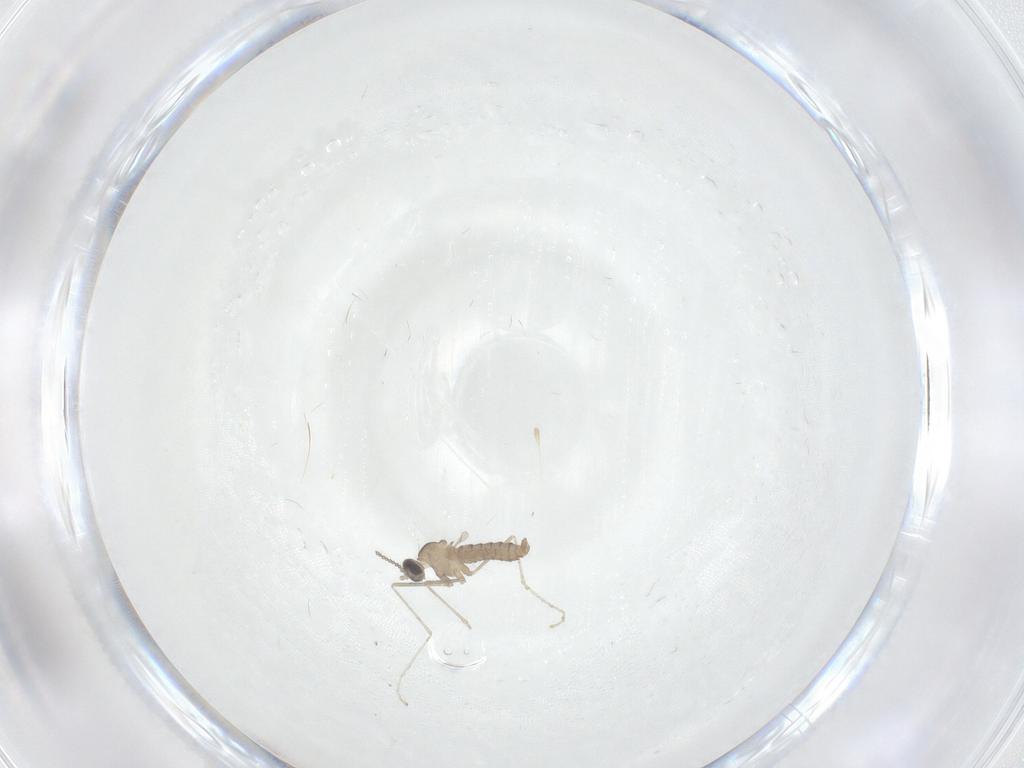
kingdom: Animalia
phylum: Arthropoda
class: Insecta
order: Diptera
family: Cecidomyiidae
